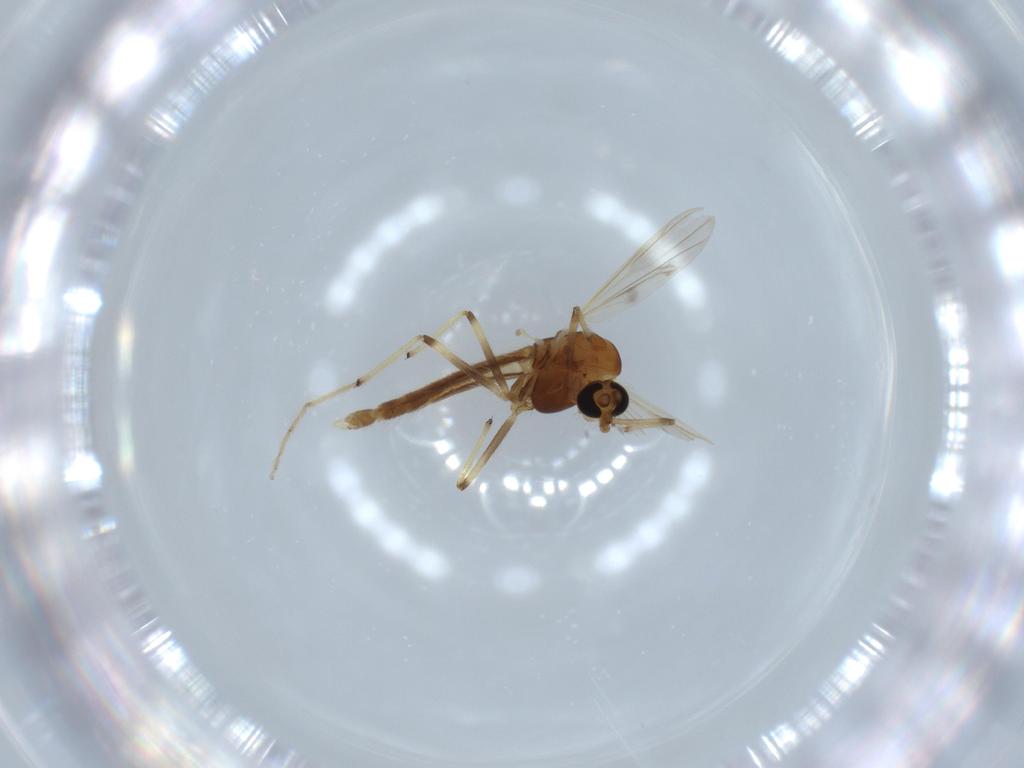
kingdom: Animalia
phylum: Arthropoda
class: Insecta
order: Diptera
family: Chironomidae
